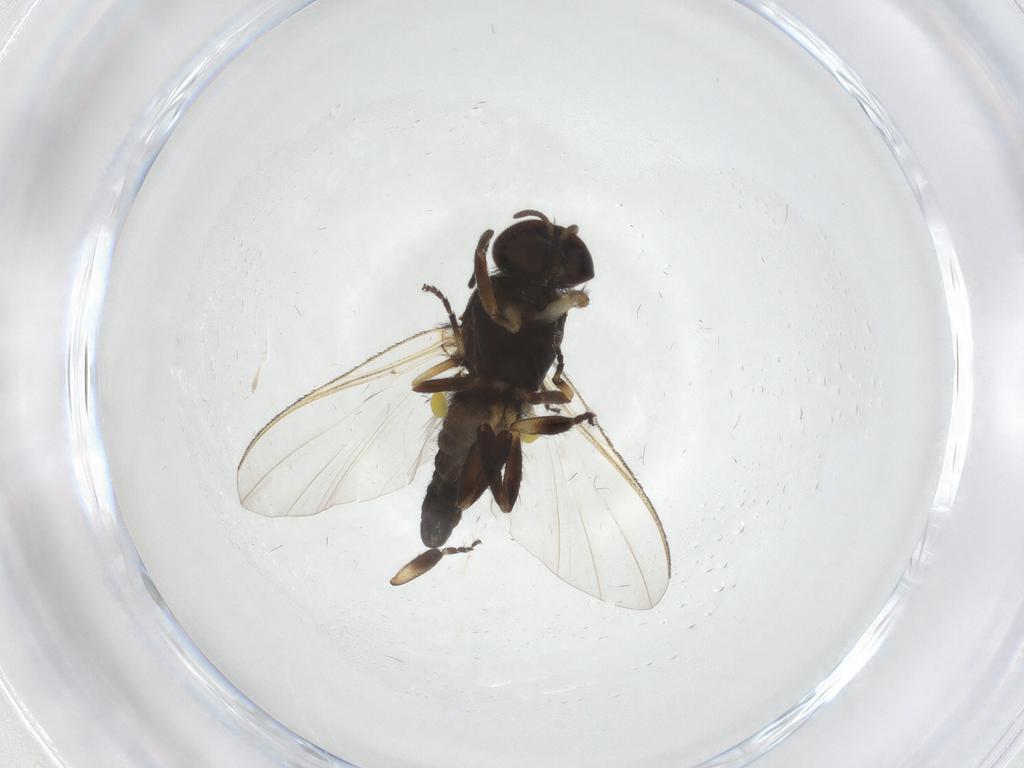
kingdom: Animalia
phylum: Arthropoda
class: Insecta
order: Diptera
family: Simuliidae
